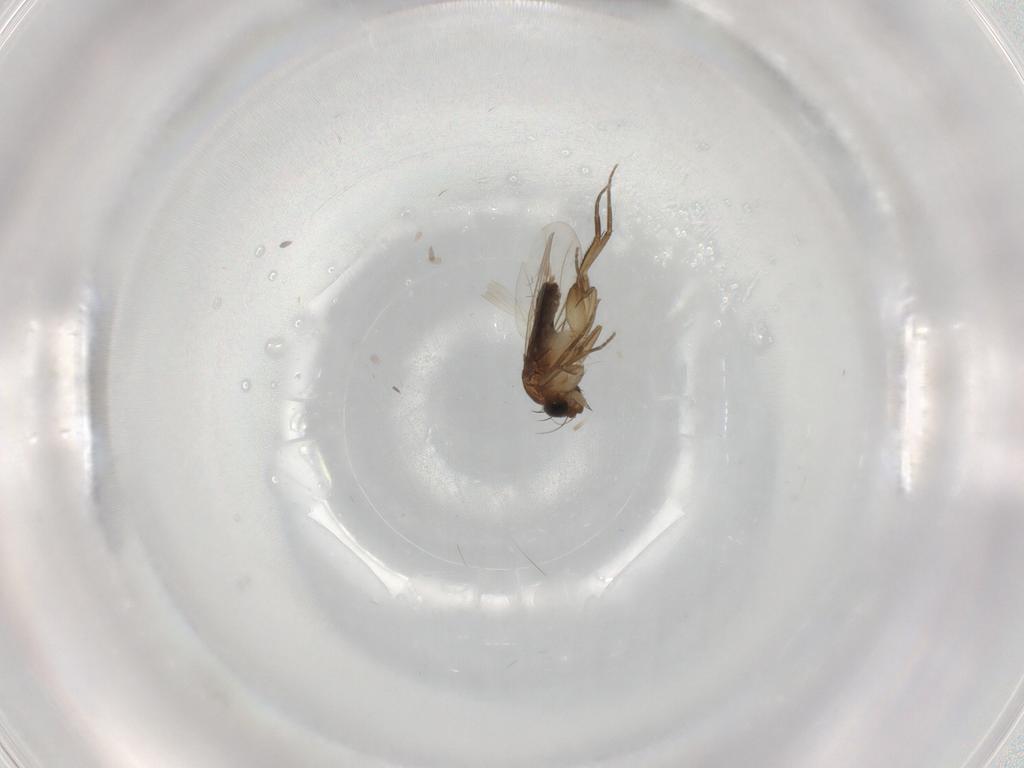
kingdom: Animalia
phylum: Arthropoda
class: Insecta
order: Diptera
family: Phoridae
